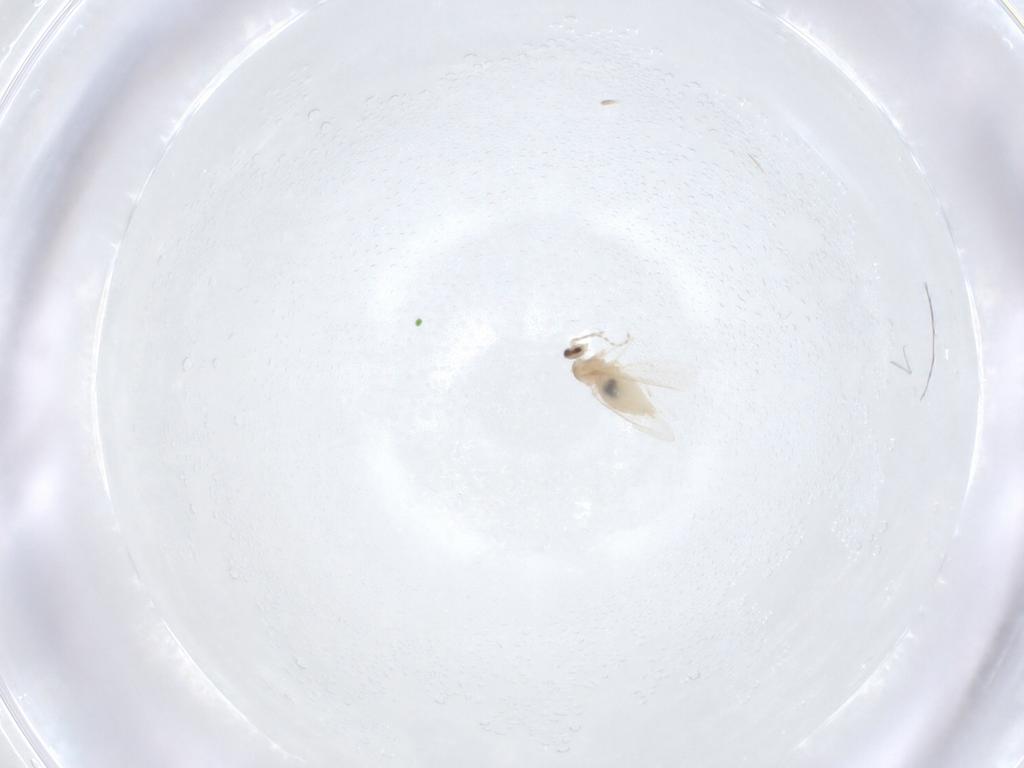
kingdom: Animalia
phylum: Arthropoda
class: Insecta
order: Diptera
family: Cecidomyiidae
